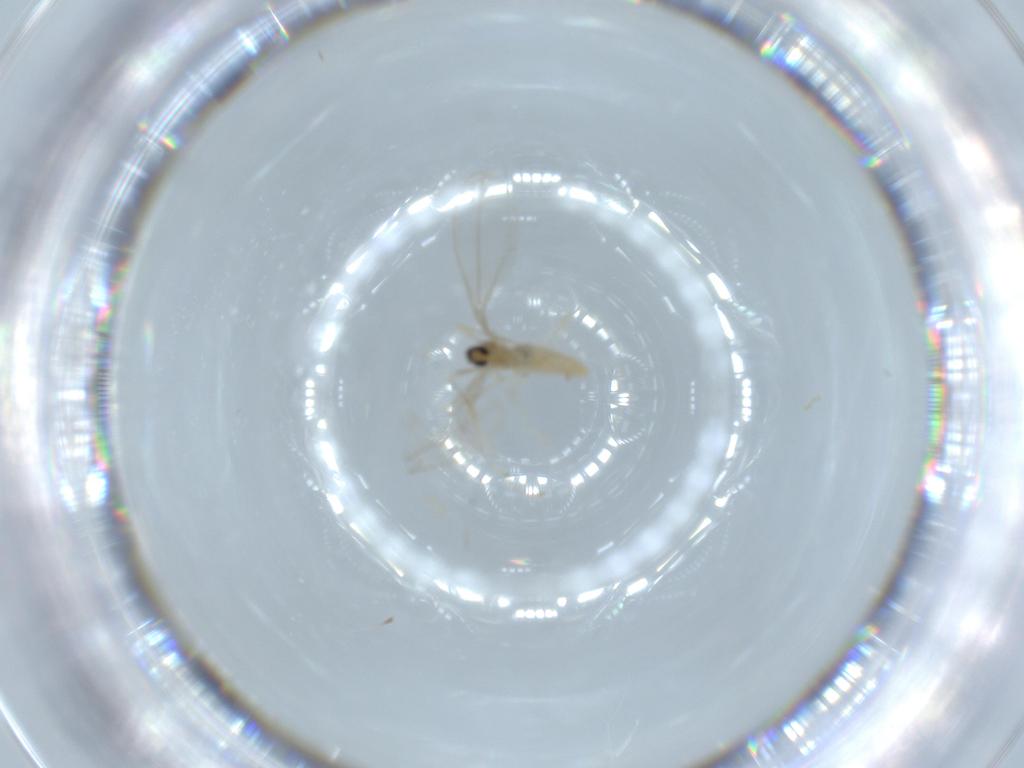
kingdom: Animalia
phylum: Arthropoda
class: Insecta
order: Diptera
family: Cecidomyiidae
